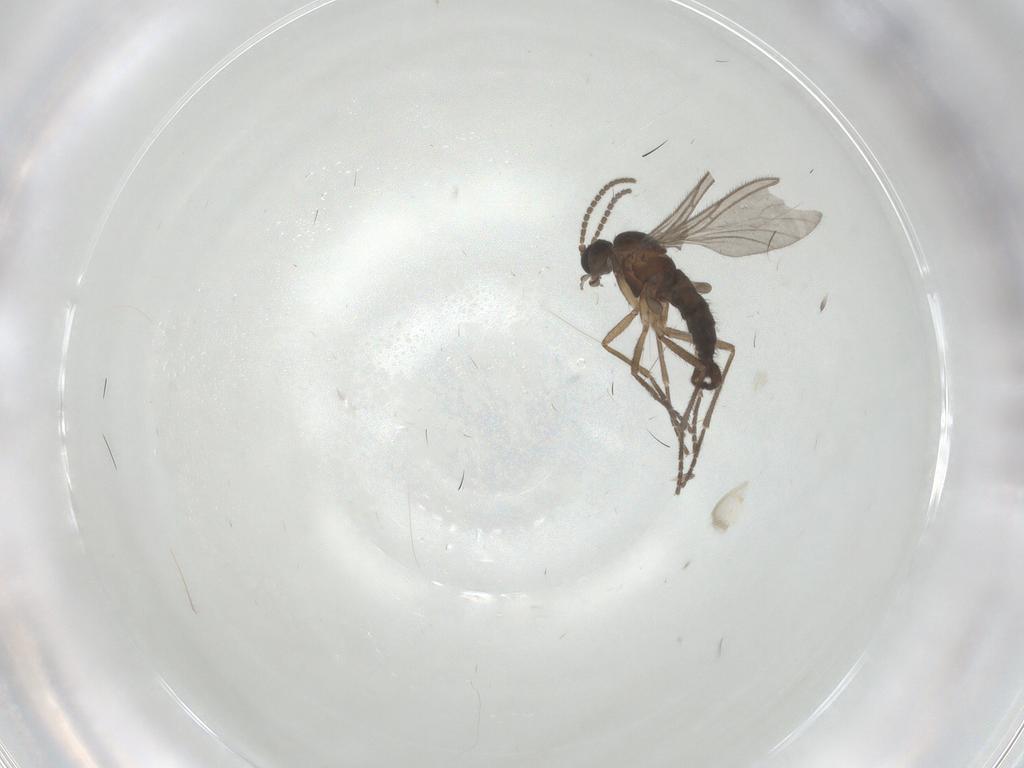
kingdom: Animalia
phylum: Arthropoda
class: Insecta
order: Diptera
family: Sciaridae
